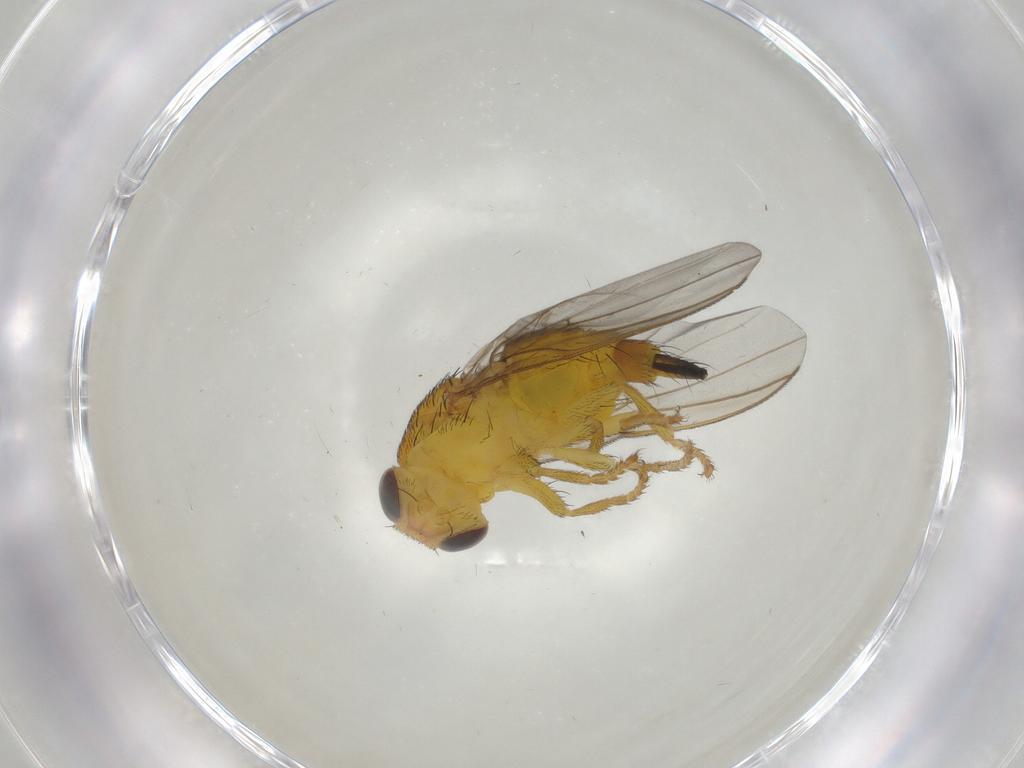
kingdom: Animalia
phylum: Arthropoda
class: Insecta
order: Diptera
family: Fergusoninidae
